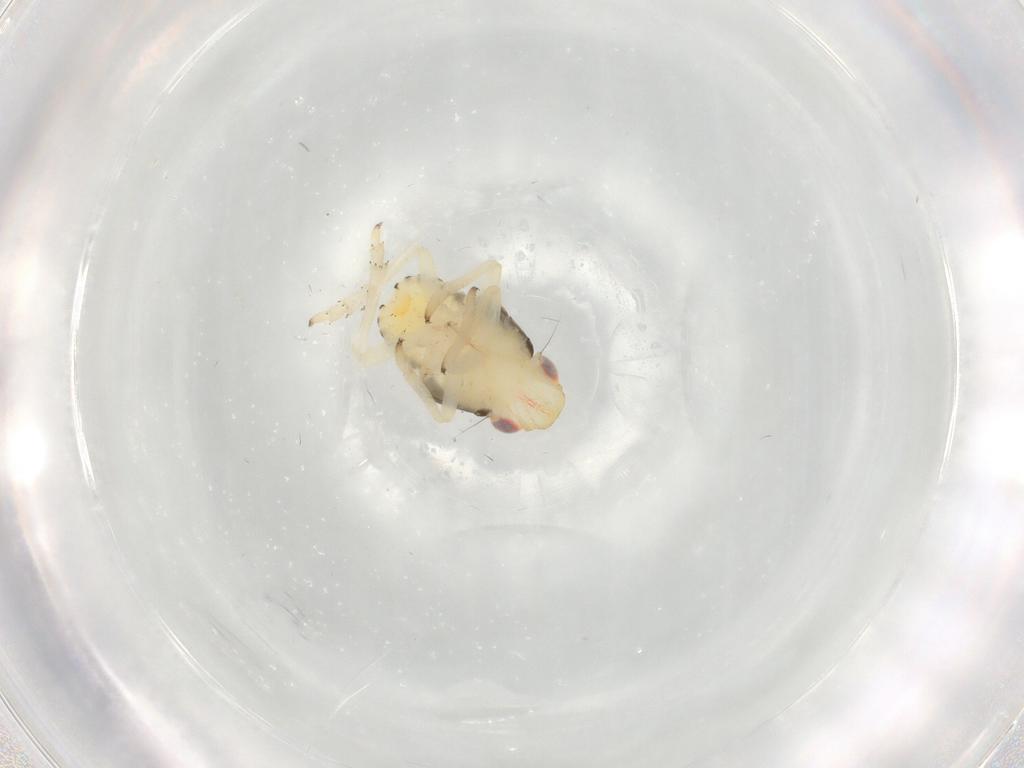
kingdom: Animalia
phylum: Arthropoda
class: Insecta
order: Hemiptera
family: Caliscelidae
